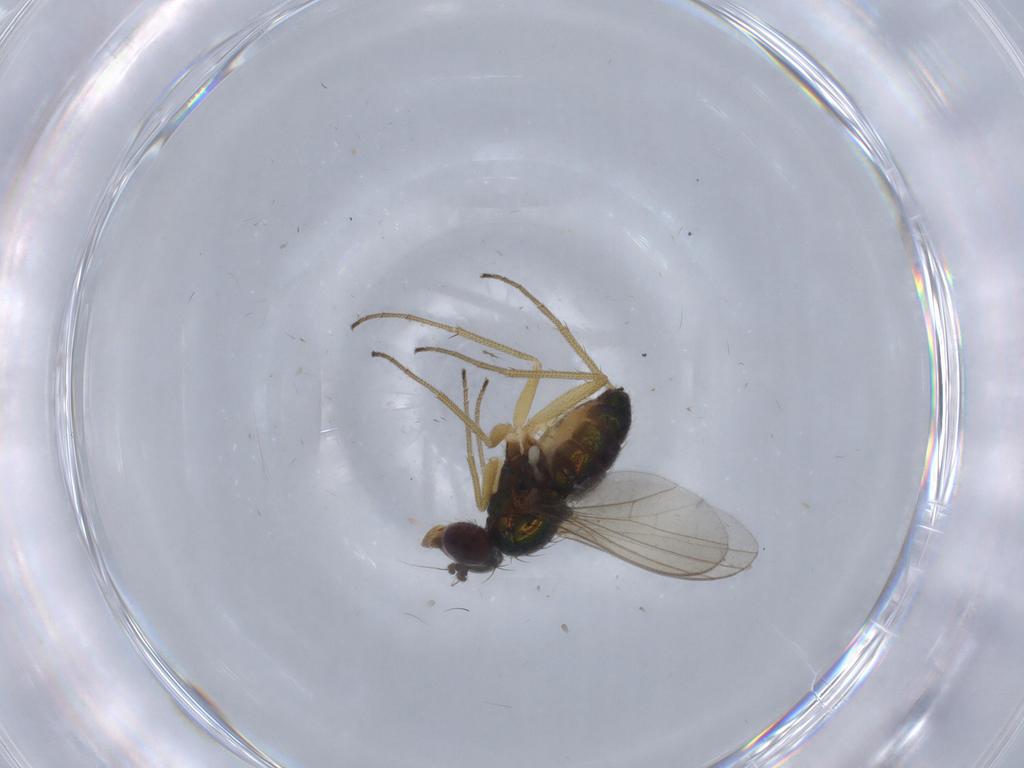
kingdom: Animalia
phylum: Arthropoda
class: Insecta
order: Diptera
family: Dolichopodidae
